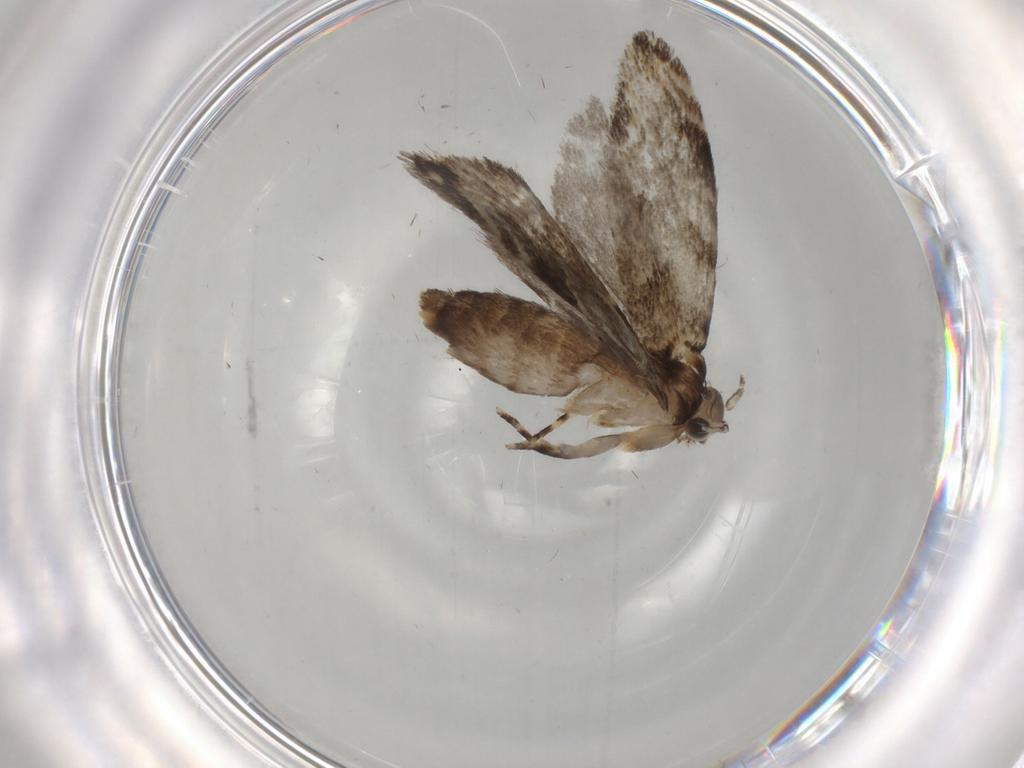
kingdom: Animalia
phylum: Arthropoda
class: Insecta
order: Lepidoptera
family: Tineidae
